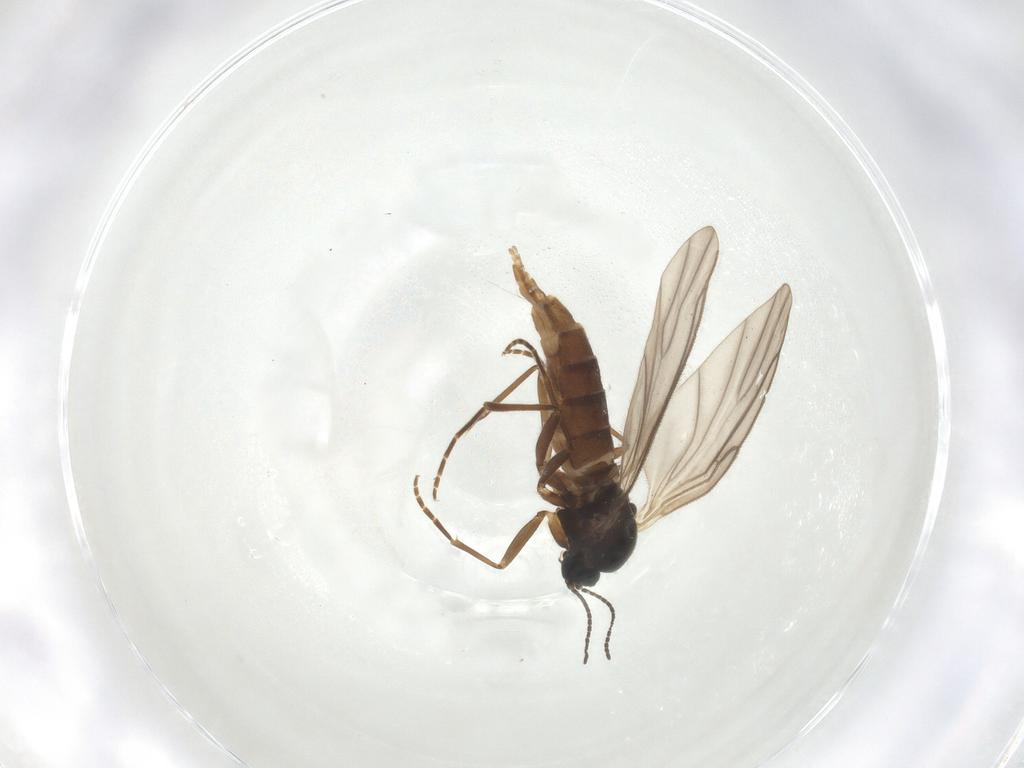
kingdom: Animalia
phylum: Arthropoda
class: Insecta
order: Diptera
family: Sciaridae
